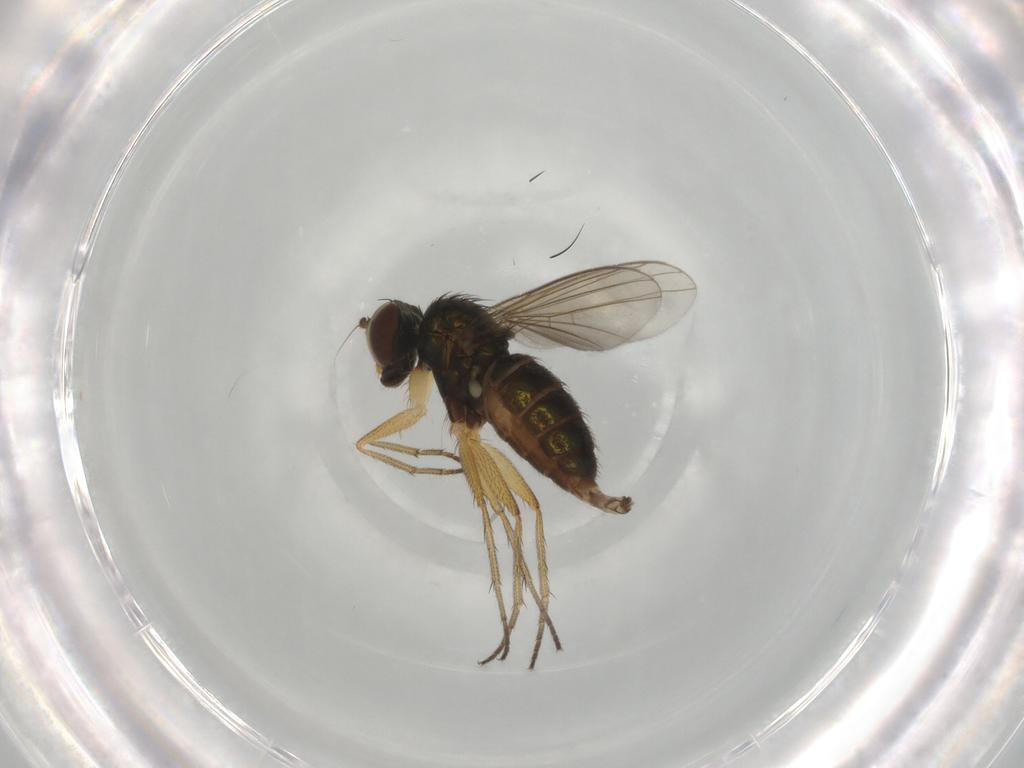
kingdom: Animalia
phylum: Arthropoda
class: Insecta
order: Diptera
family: Dolichopodidae
